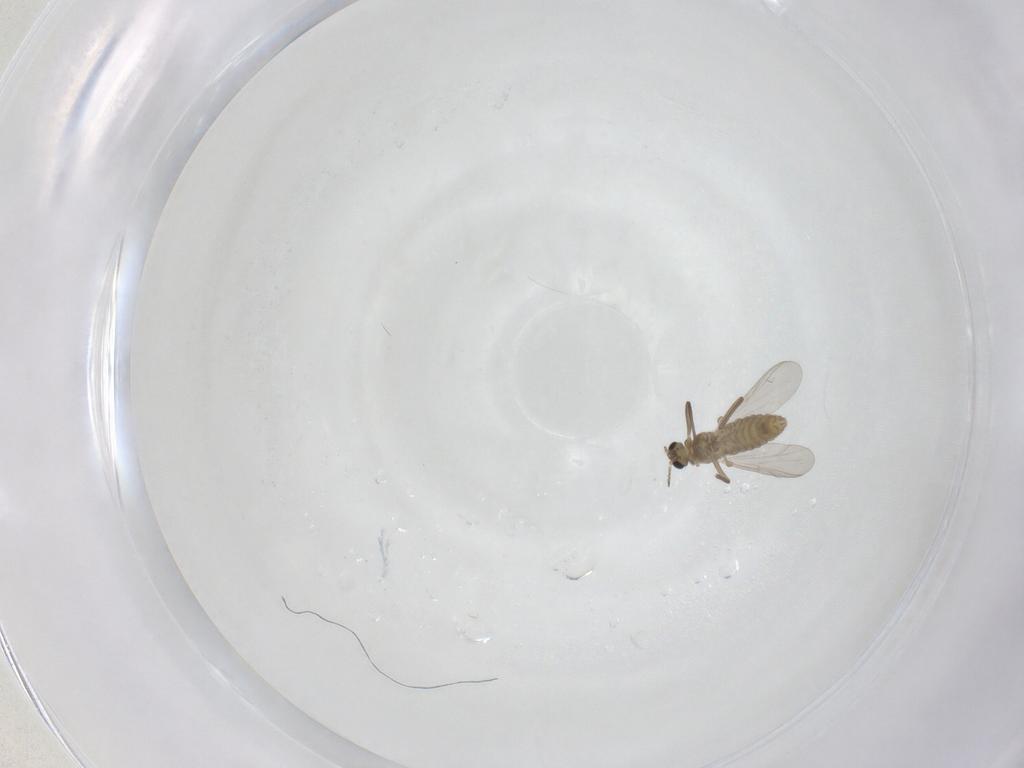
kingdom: Animalia
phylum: Arthropoda
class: Insecta
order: Diptera
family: Chironomidae
